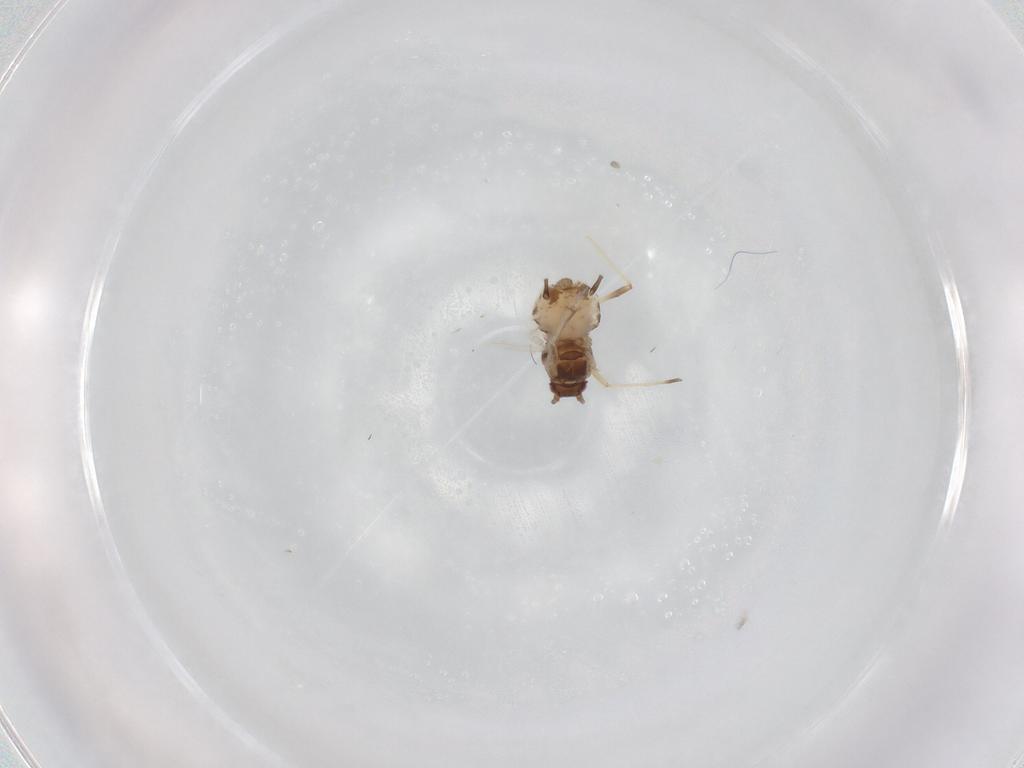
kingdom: Animalia
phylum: Arthropoda
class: Insecta
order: Hemiptera
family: Aphididae
